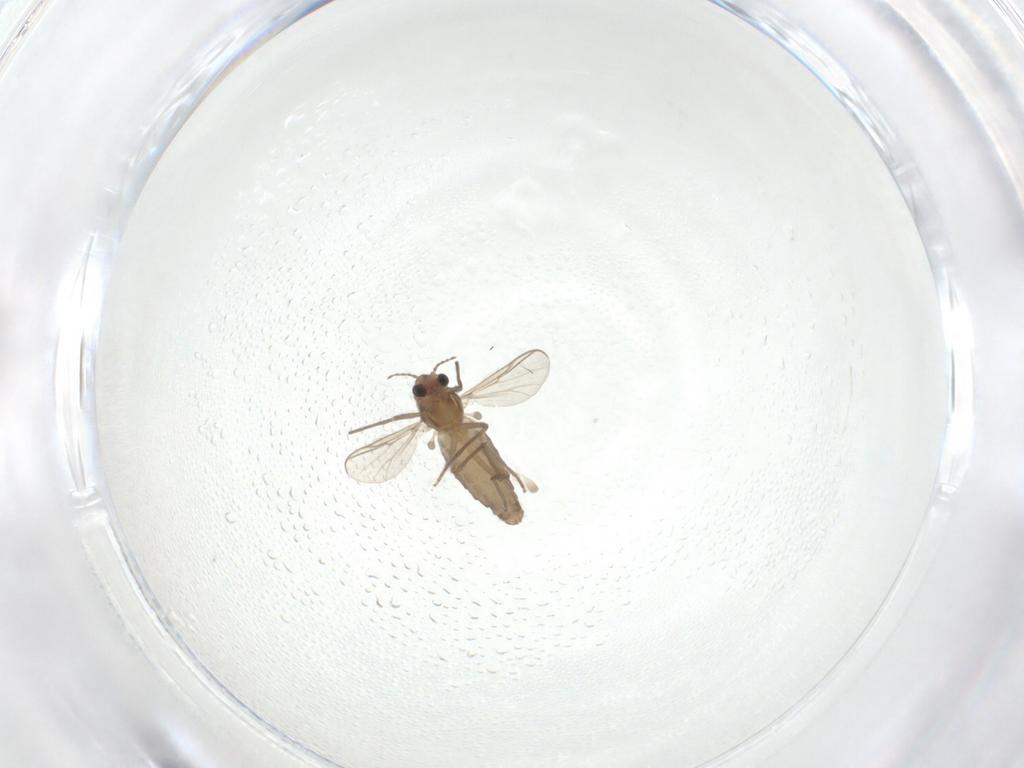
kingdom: Animalia
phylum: Arthropoda
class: Insecta
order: Diptera
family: Chironomidae
